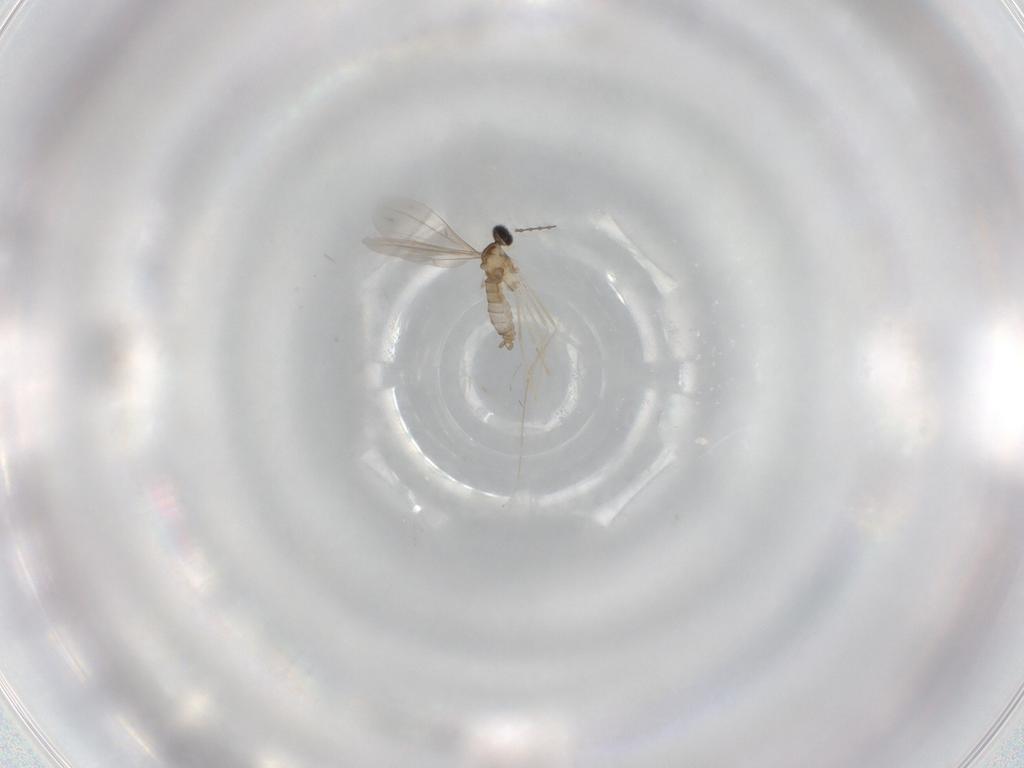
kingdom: Animalia
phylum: Arthropoda
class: Insecta
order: Diptera
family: Cecidomyiidae
